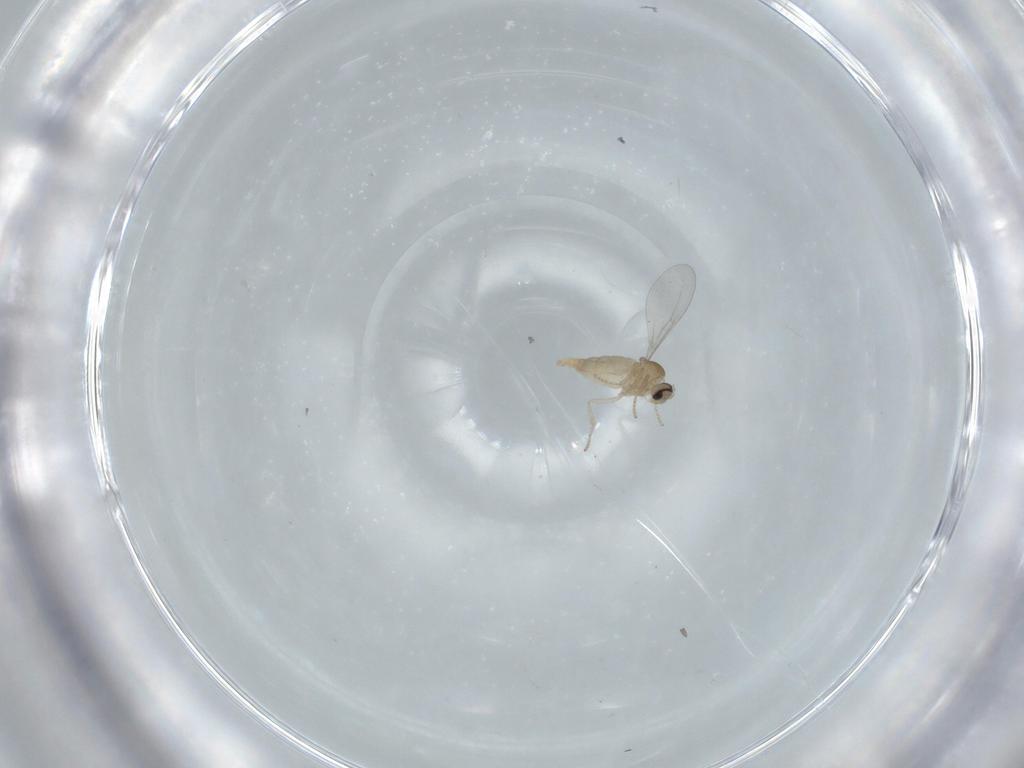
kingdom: Animalia
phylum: Arthropoda
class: Insecta
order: Diptera
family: Cecidomyiidae
